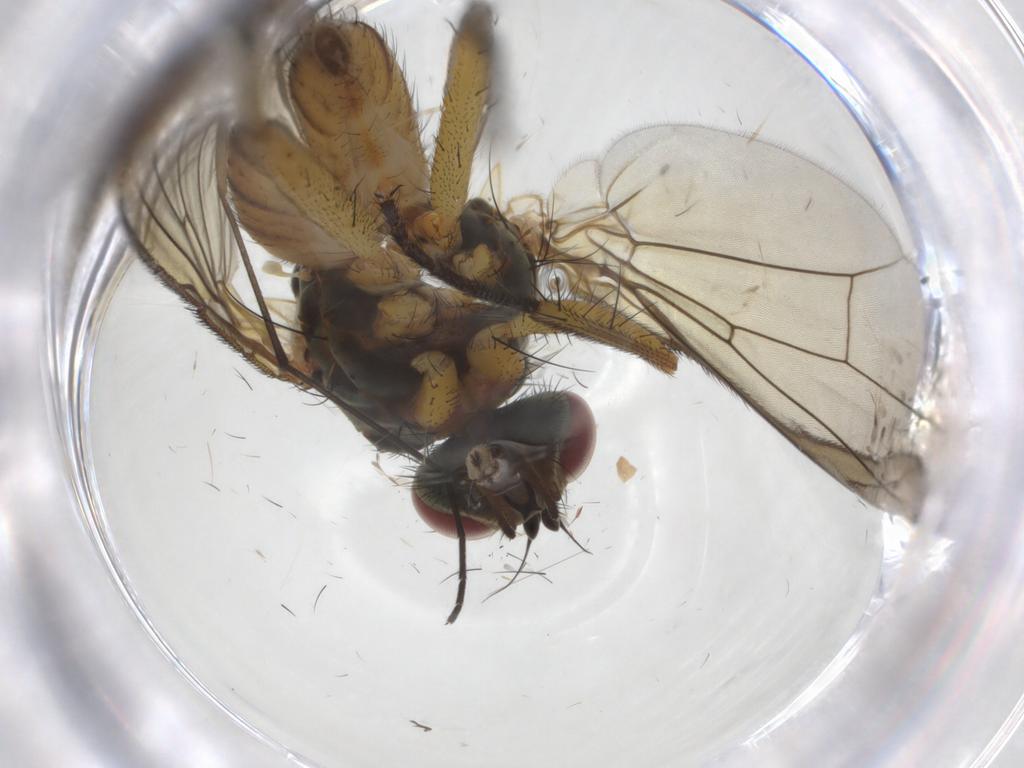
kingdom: Animalia
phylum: Arthropoda
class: Insecta
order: Diptera
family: Muscidae
